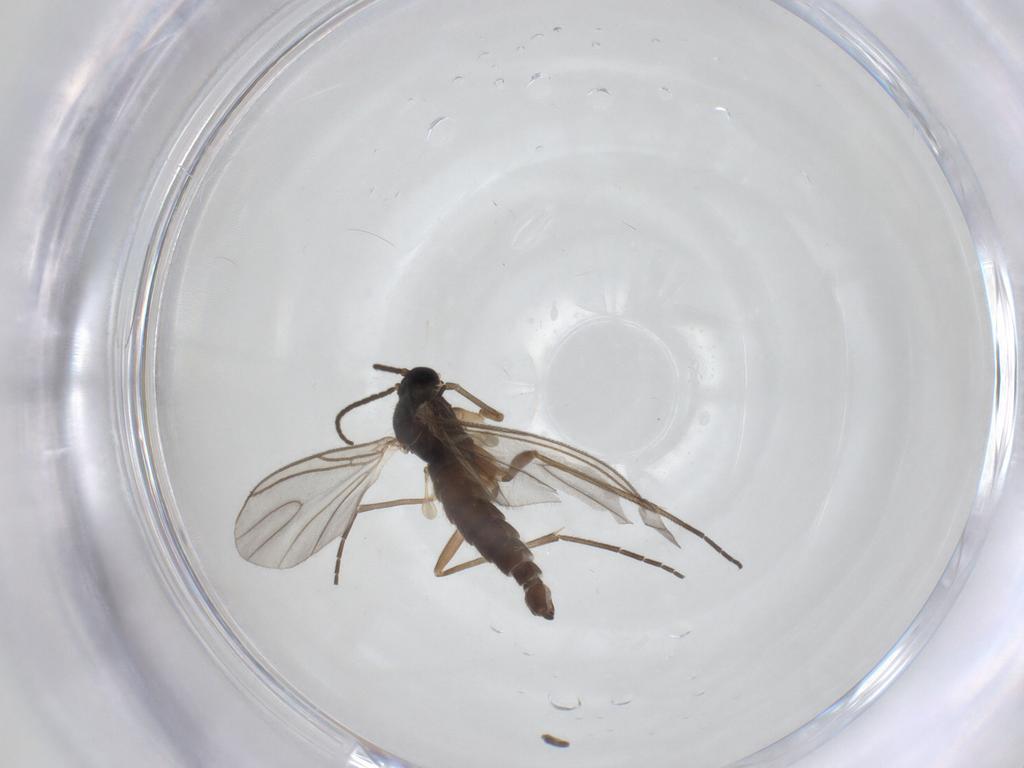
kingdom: Animalia
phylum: Arthropoda
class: Insecta
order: Diptera
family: Sciaridae
